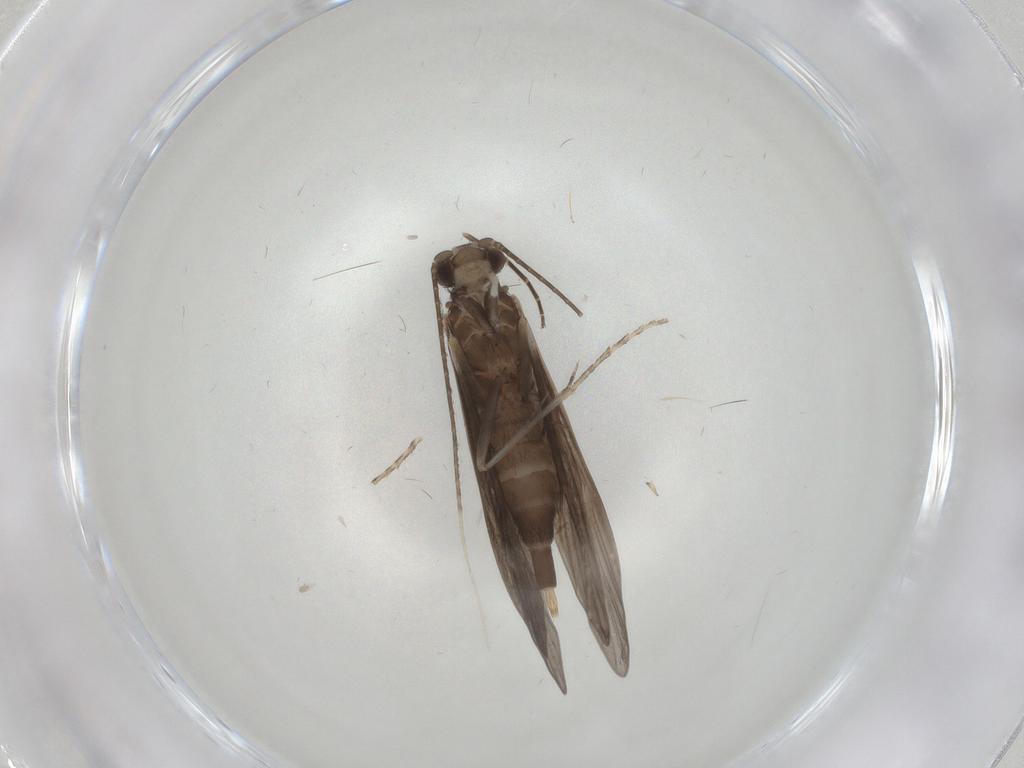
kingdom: Animalia
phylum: Arthropoda
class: Insecta
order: Trichoptera
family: Xiphocentronidae
